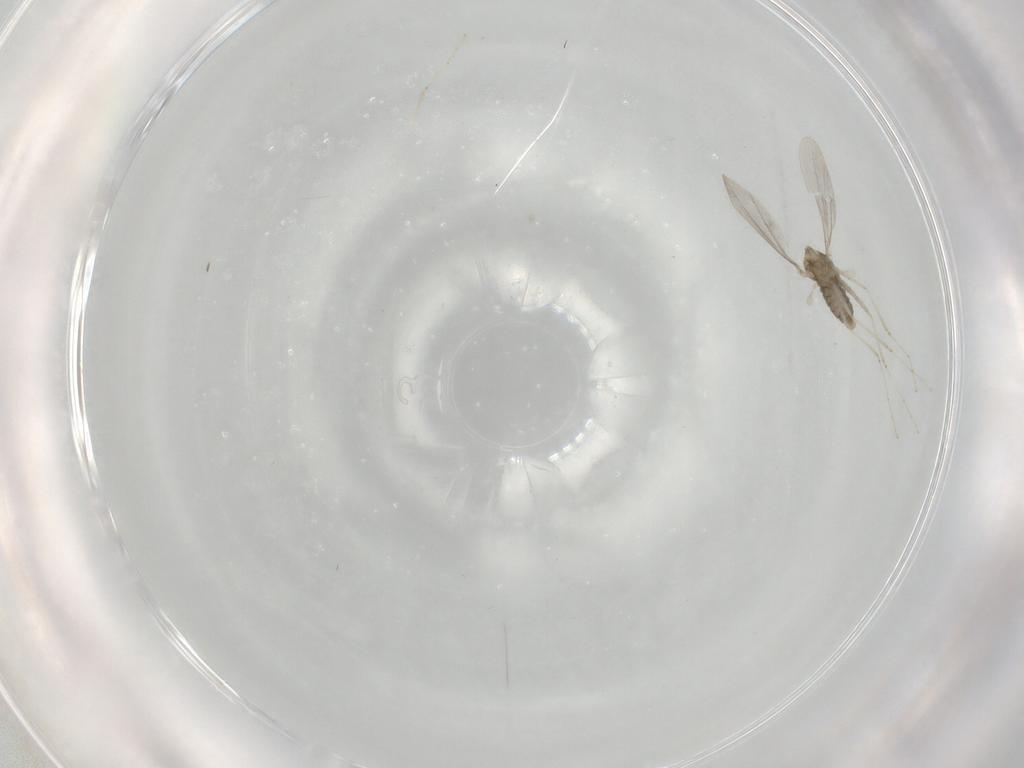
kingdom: Animalia
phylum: Arthropoda
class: Insecta
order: Diptera
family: Cecidomyiidae
